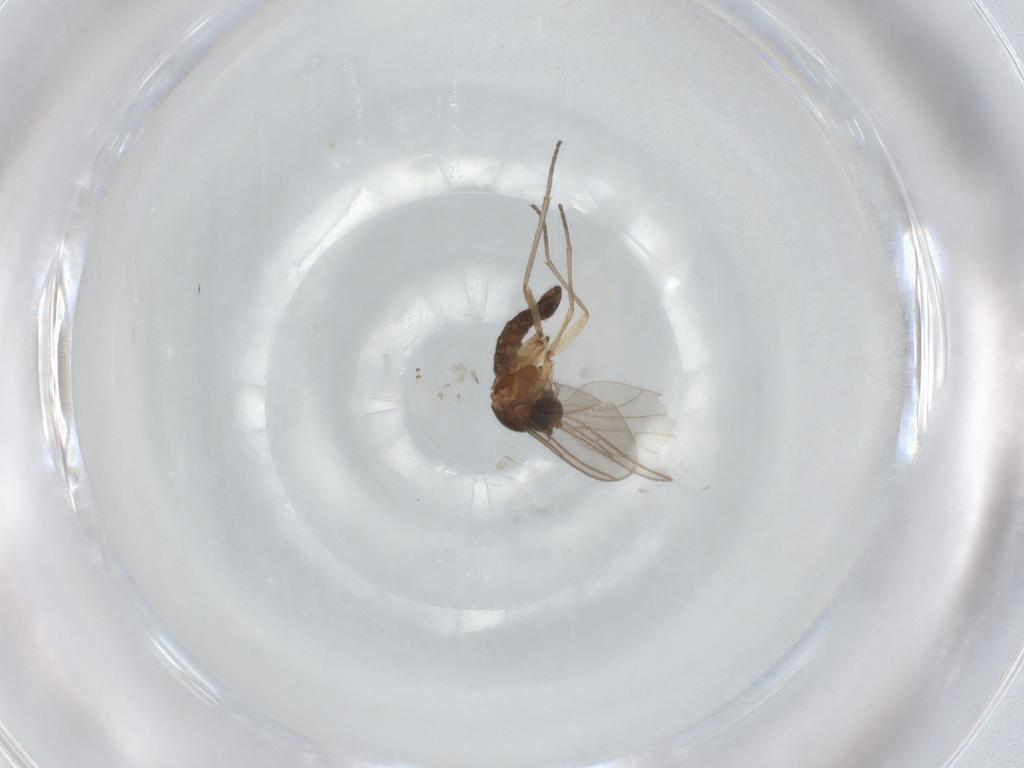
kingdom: Animalia
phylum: Arthropoda
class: Insecta
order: Diptera
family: Sciaridae
